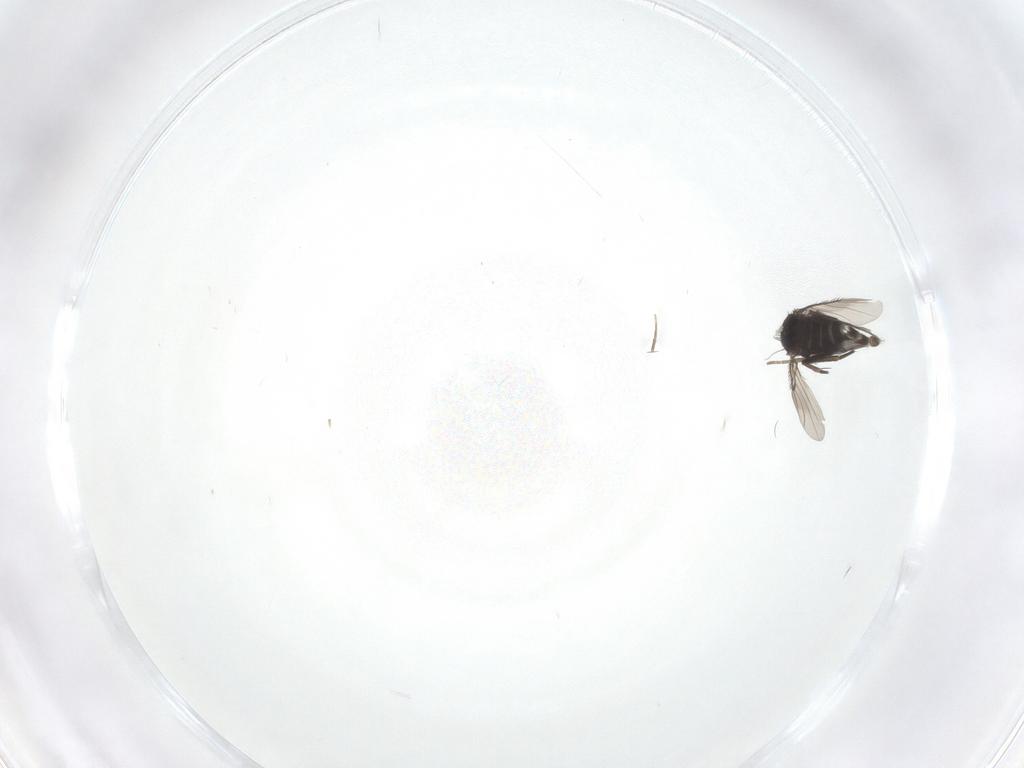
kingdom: Animalia
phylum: Arthropoda
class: Insecta
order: Diptera
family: Phoridae
